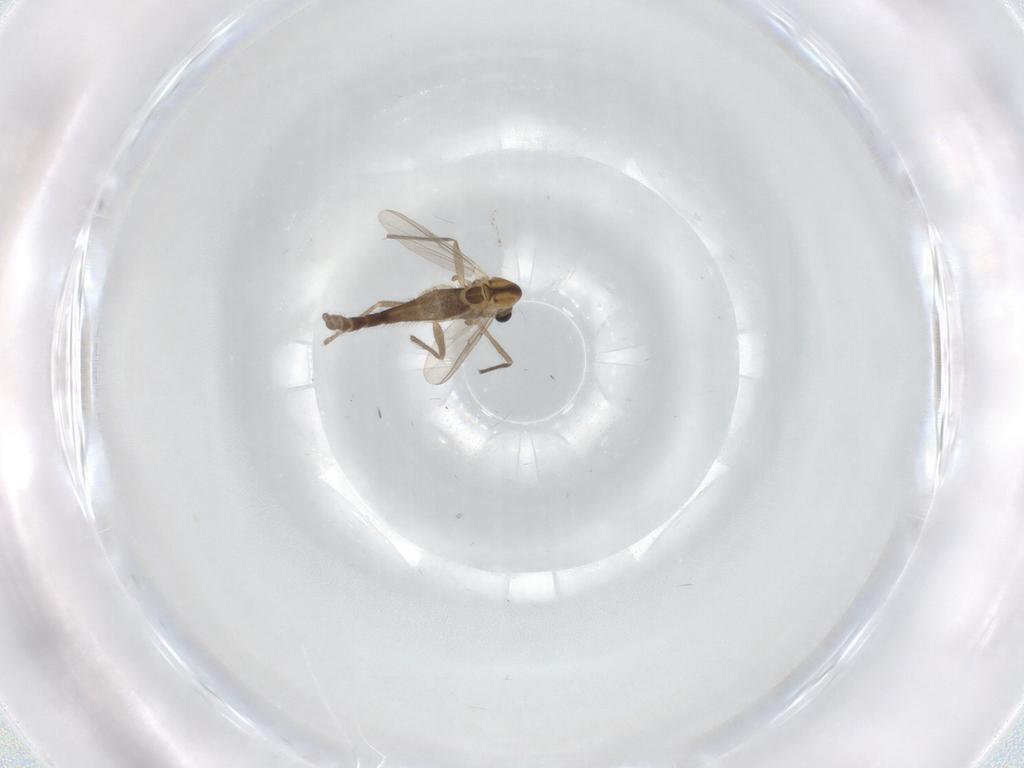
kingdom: Animalia
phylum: Arthropoda
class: Insecta
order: Diptera
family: Chironomidae
